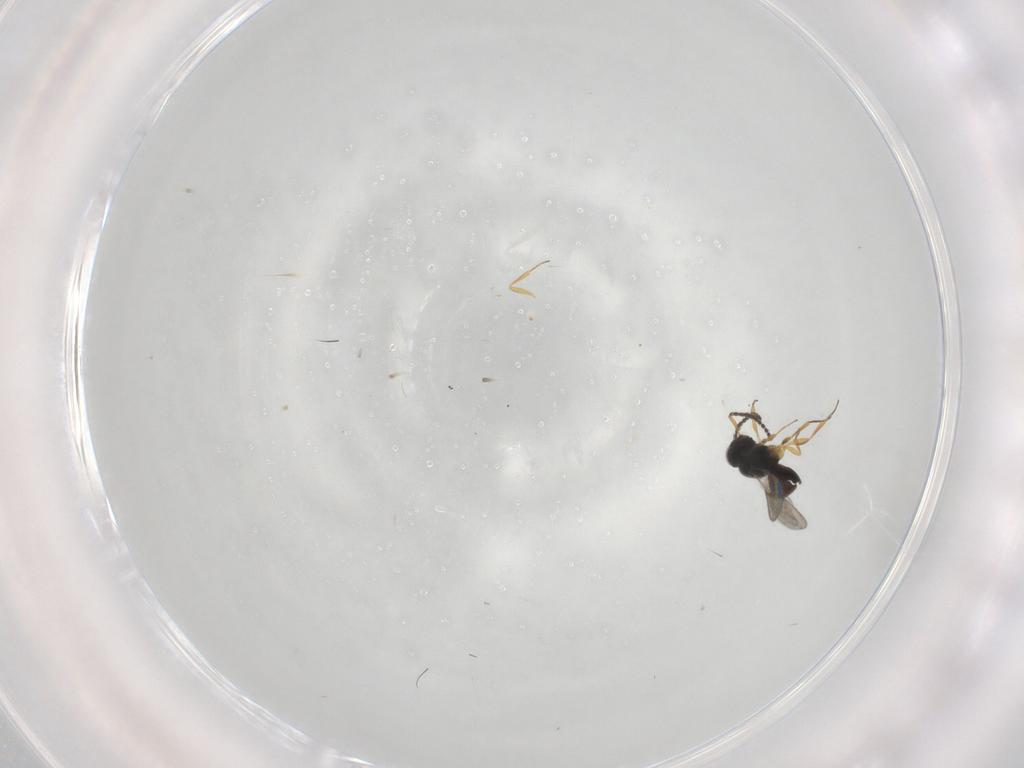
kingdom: Animalia
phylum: Arthropoda
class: Insecta
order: Hymenoptera
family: Scelionidae
